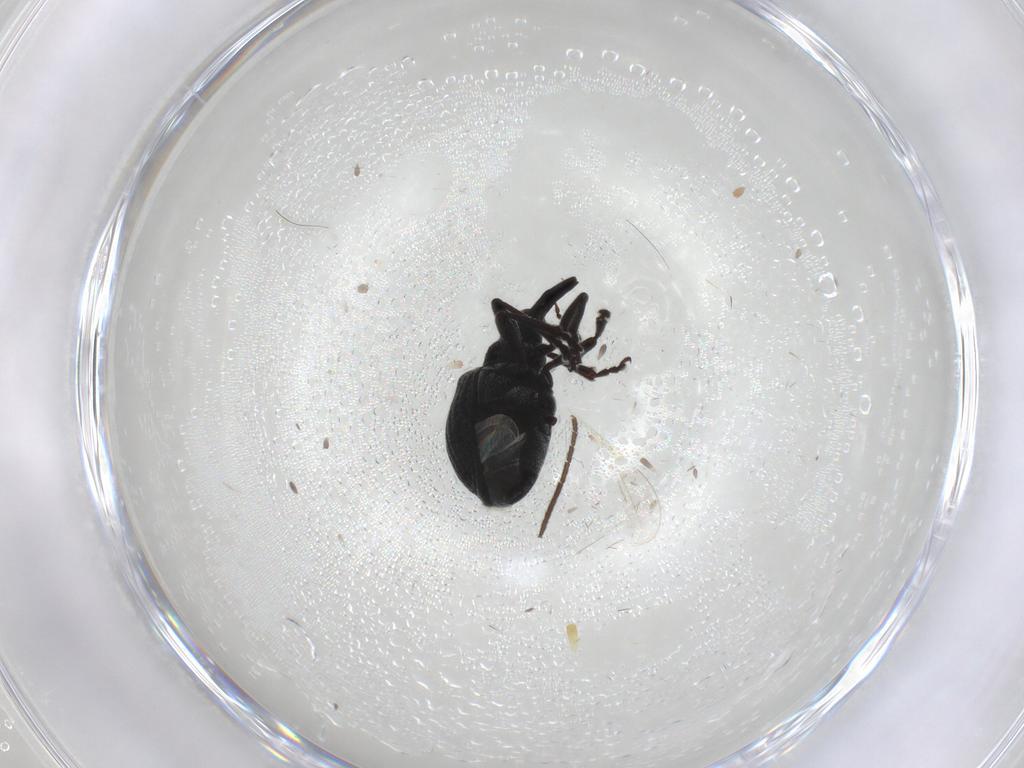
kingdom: Animalia
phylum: Arthropoda
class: Insecta
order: Coleoptera
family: Brentidae
